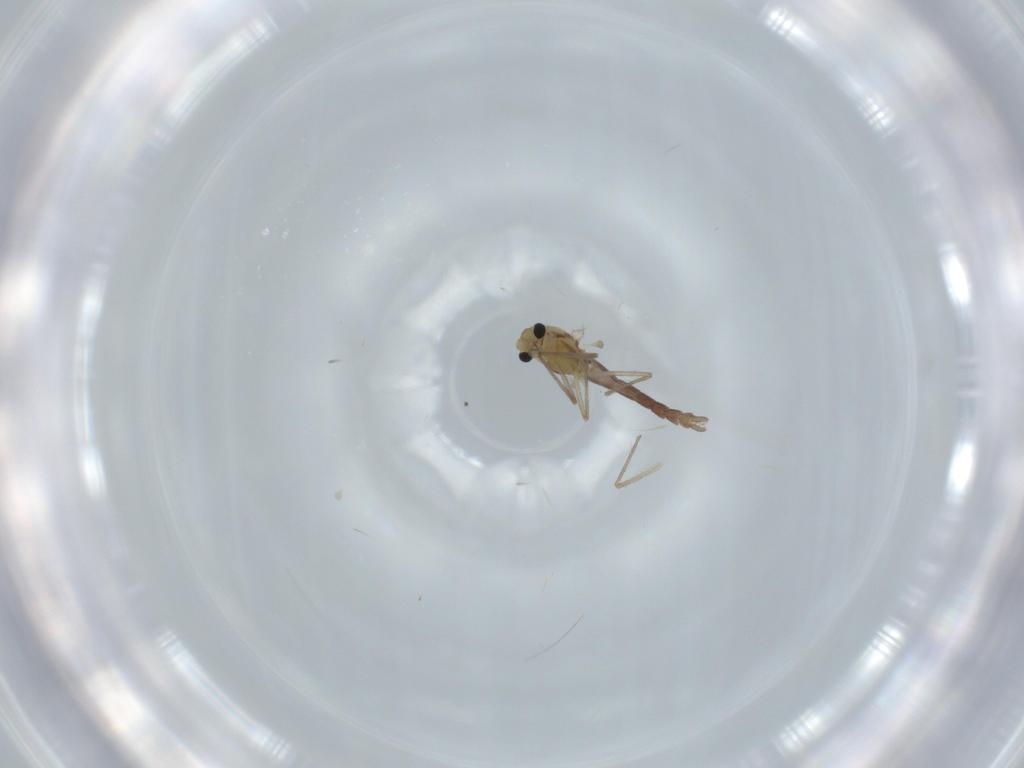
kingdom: Animalia
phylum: Arthropoda
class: Insecta
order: Diptera
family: Chironomidae
